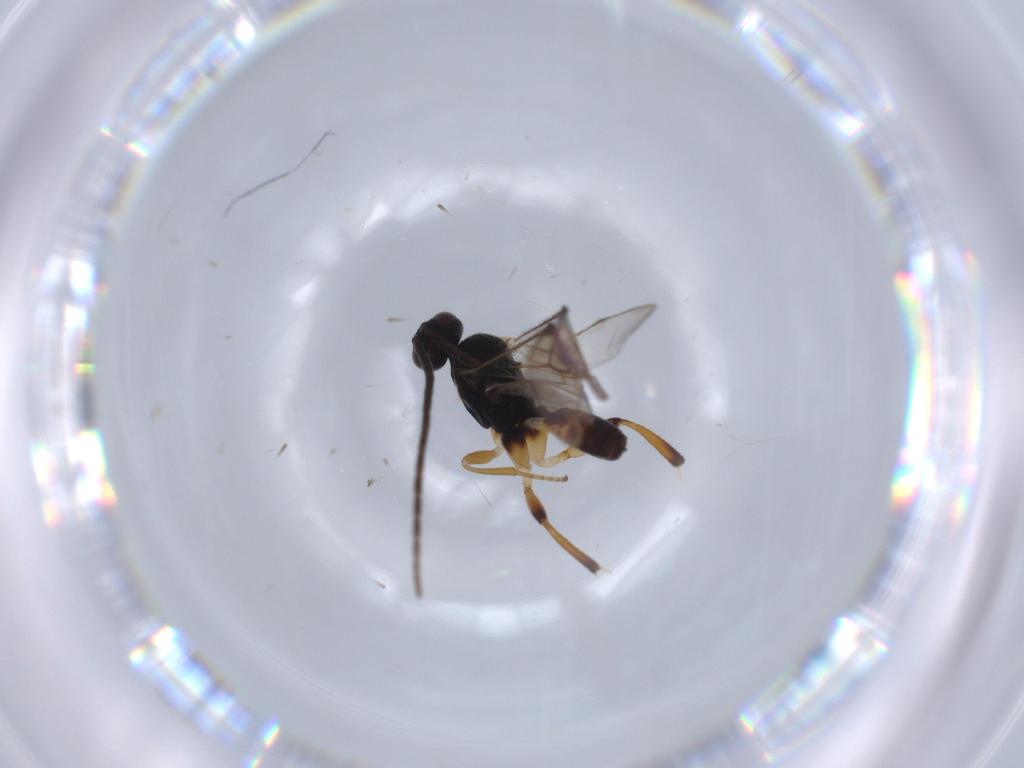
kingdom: Animalia
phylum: Arthropoda
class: Insecta
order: Hymenoptera
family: Braconidae
